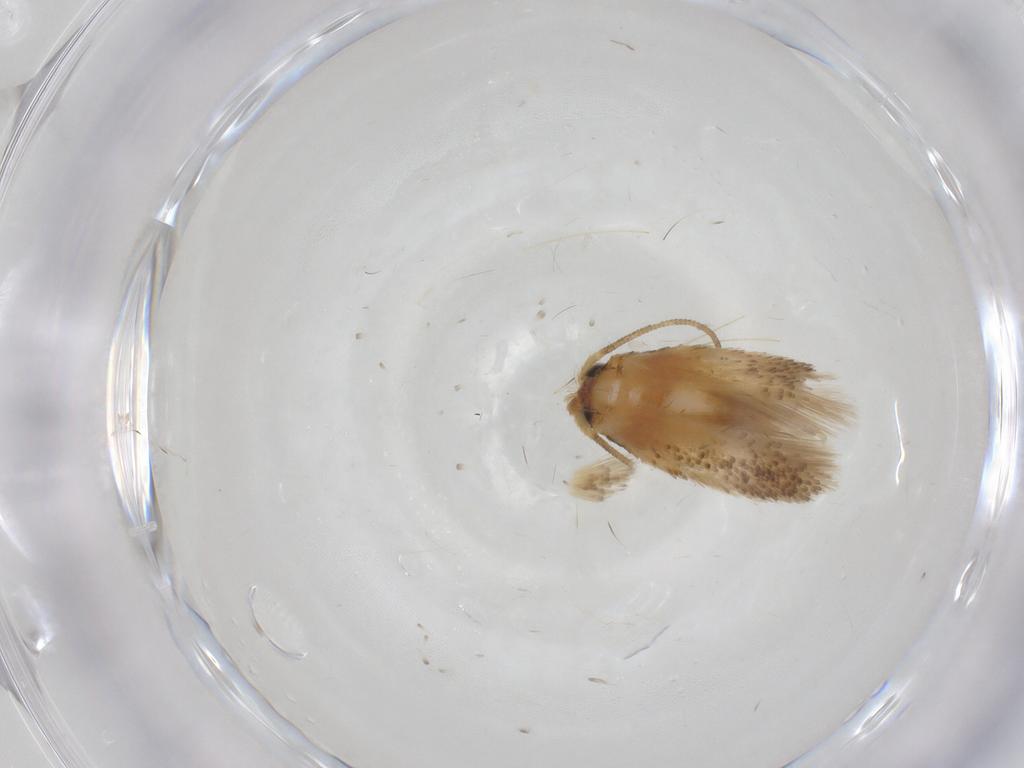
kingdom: Animalia
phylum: Arthropoda
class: Insecta
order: Lepidoptera
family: Nepticulidae
